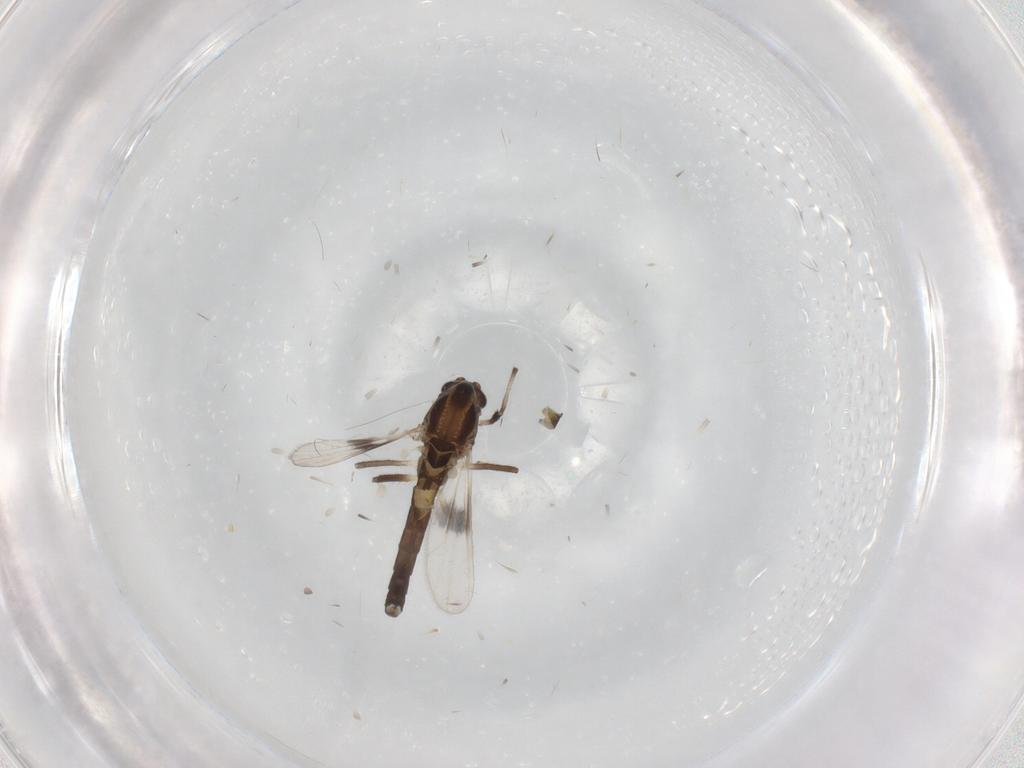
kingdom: Animalia
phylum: Arthropoda
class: Insecta
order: Diptera
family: Chironomidae
